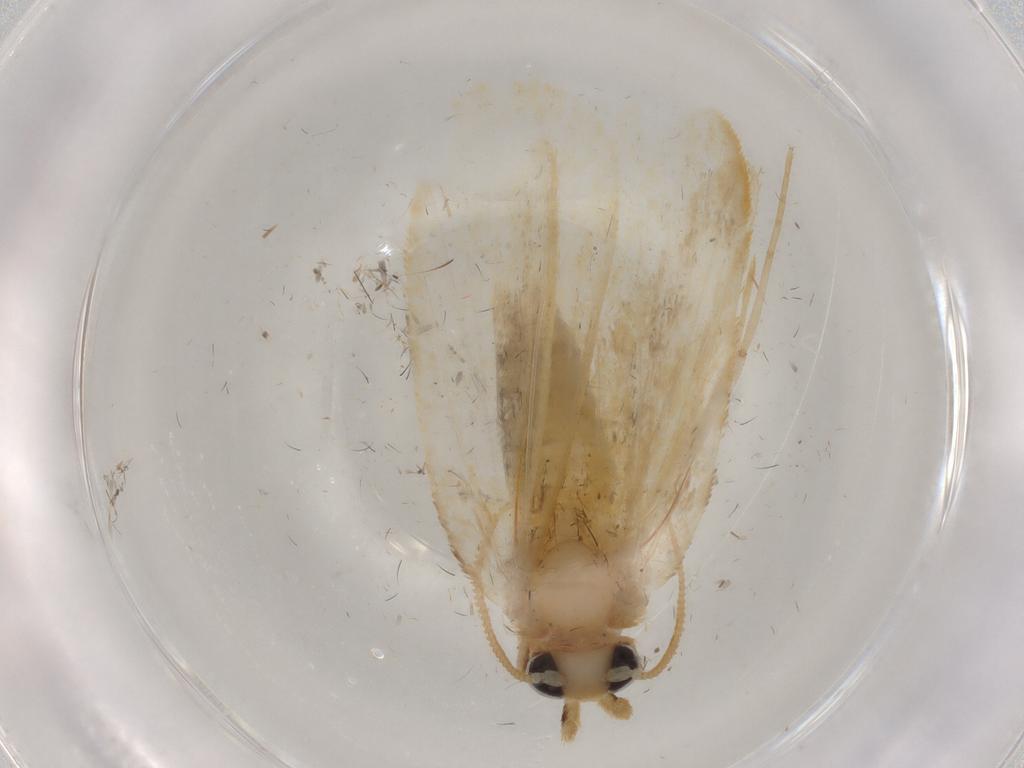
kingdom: Animalia
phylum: Arthropoda
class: Insecta
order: Lepidoptera
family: Psychidae
